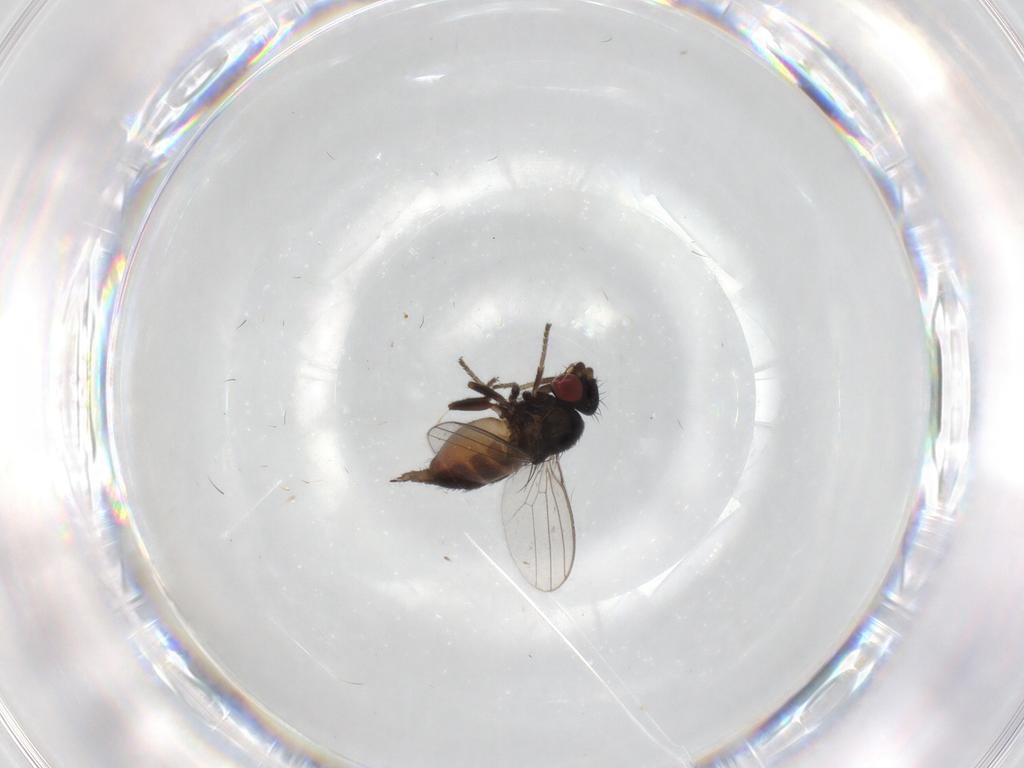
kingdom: Animalia
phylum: Arthropoda
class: Insecta
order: Diptera
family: Milichiidae
